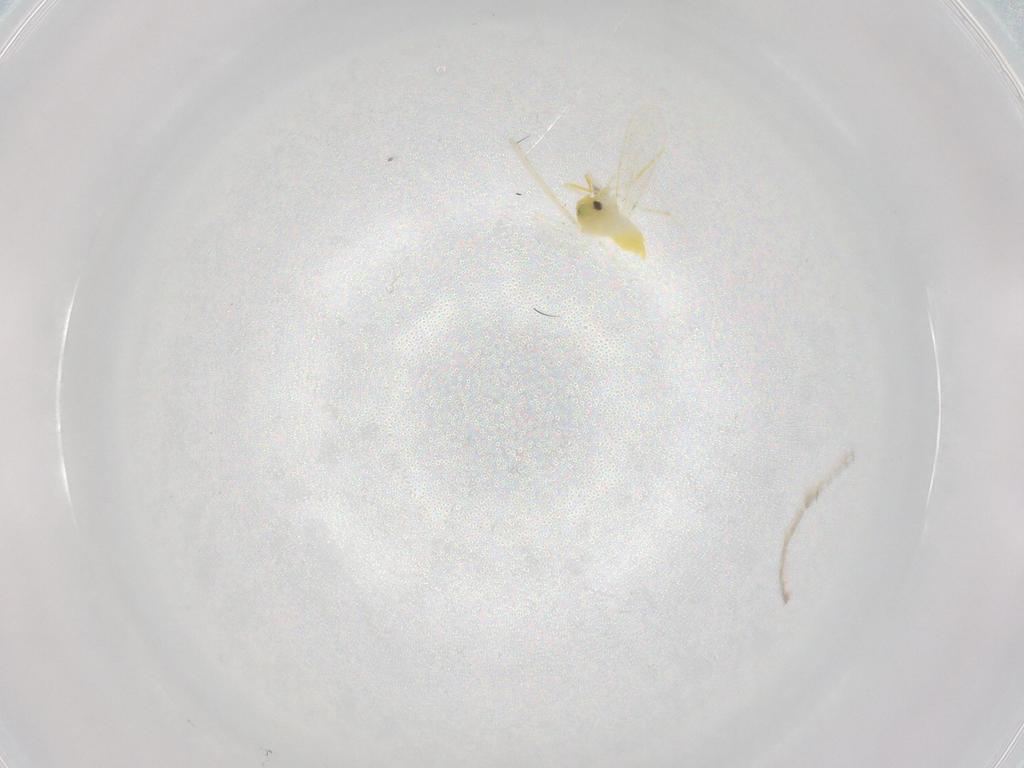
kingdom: Animalia
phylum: Arthropoda
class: Insecta
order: Hemiptera
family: Aleyrodidae
